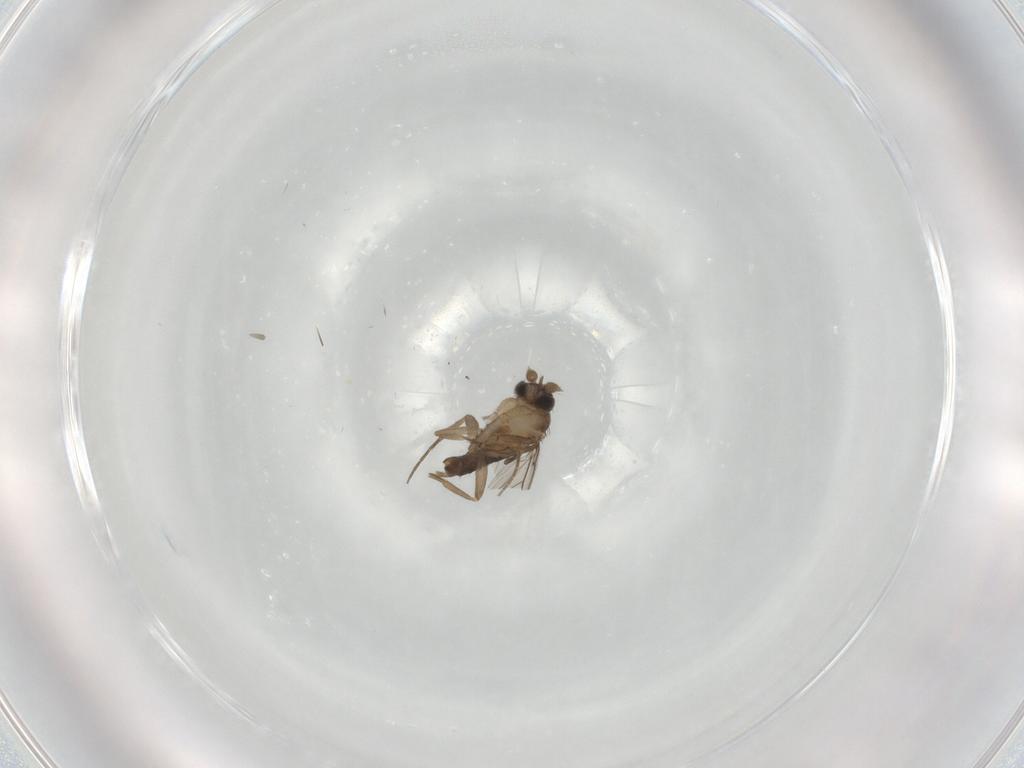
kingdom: Animalia
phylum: Arthropoda
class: Insecta
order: Diptera
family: Phoridae
